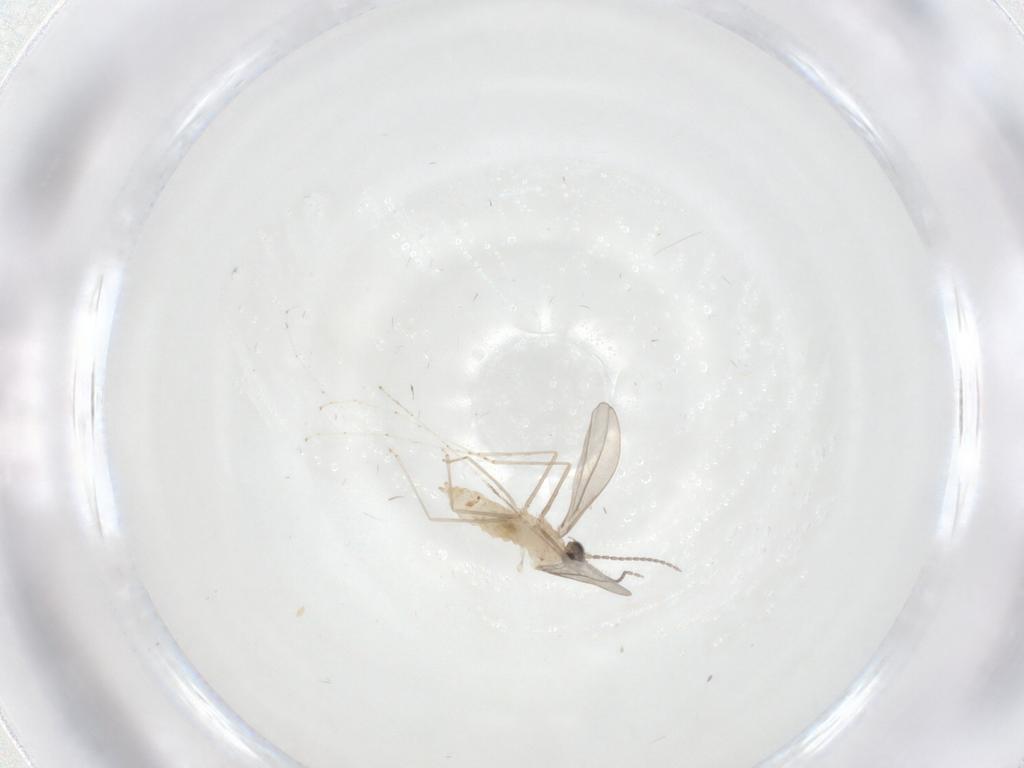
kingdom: Animalia
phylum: Arthropoda
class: Insecta
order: Diptera
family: Cecidomyiidae
